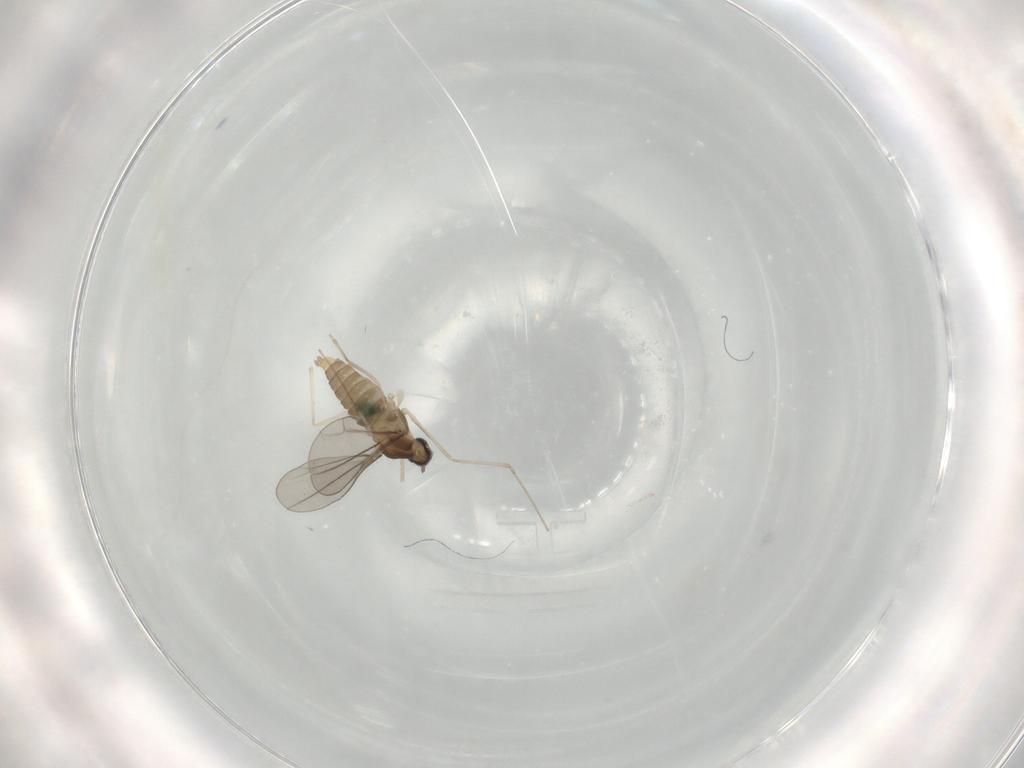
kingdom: Animalia
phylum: Arthropoda
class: Insecta
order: Diptera
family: Cecidomyiidae
